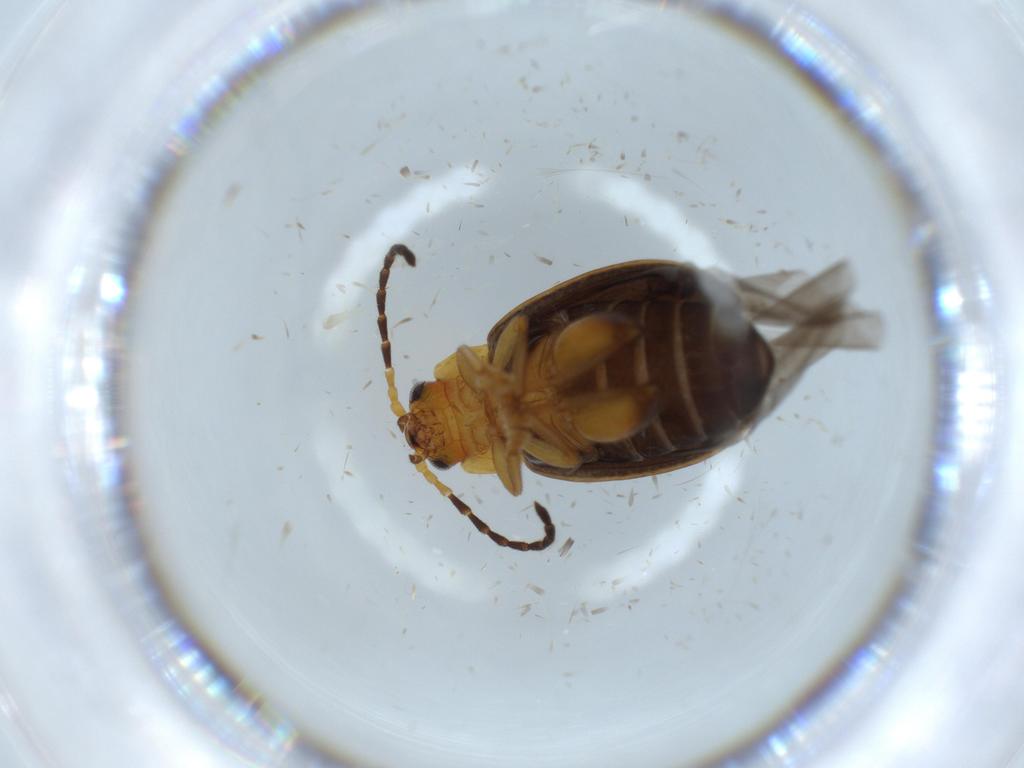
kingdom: Animalia
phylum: Arthropoda
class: Insecta
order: Coleoptera
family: Chrysomelidae
